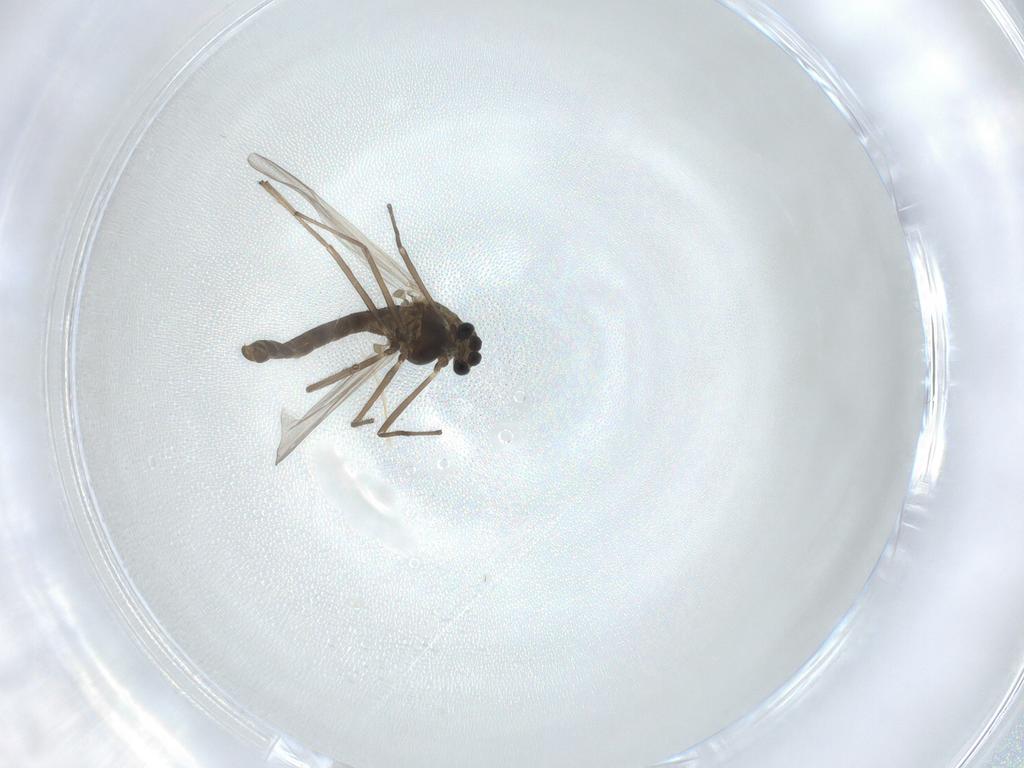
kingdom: Animalia
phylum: Arthropoda
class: Insecta
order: Diptera
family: Chironomidae
